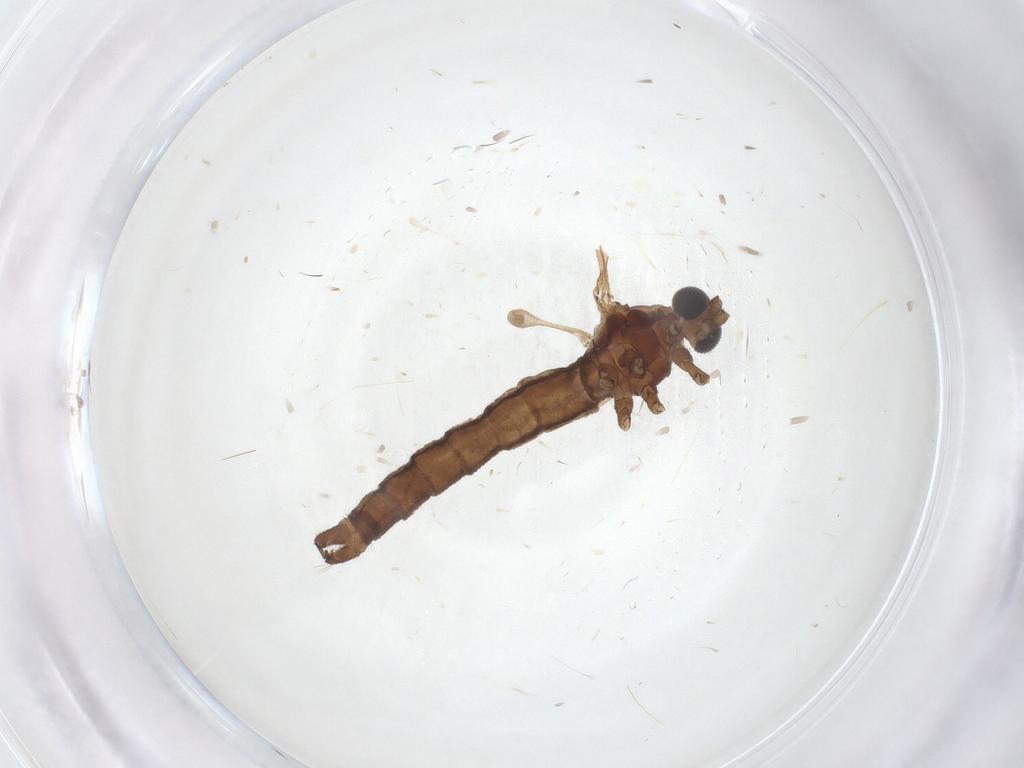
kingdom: Animalia
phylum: Arthropoda
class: Insecta
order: Diptera
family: Limoniidae
